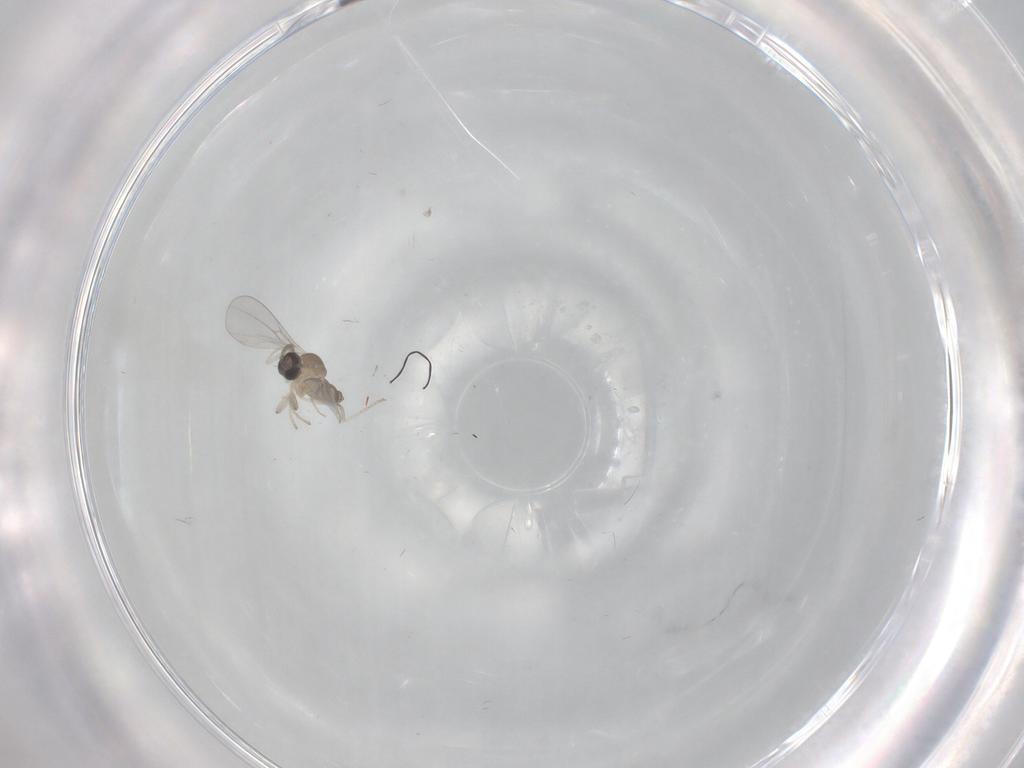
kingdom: Animalia
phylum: Arthropoda
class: Insecta
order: Diptera
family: Cecidomyiidae
